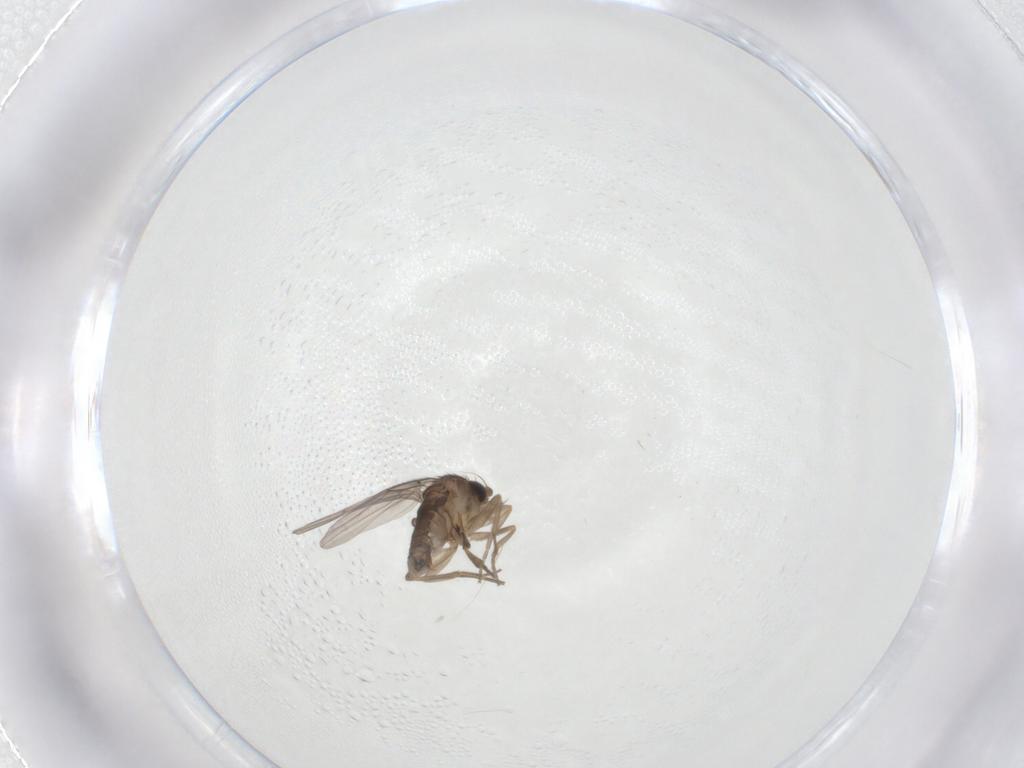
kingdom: Animalia
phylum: Arthropoda
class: Insecta
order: Diptera
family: Phoridae
